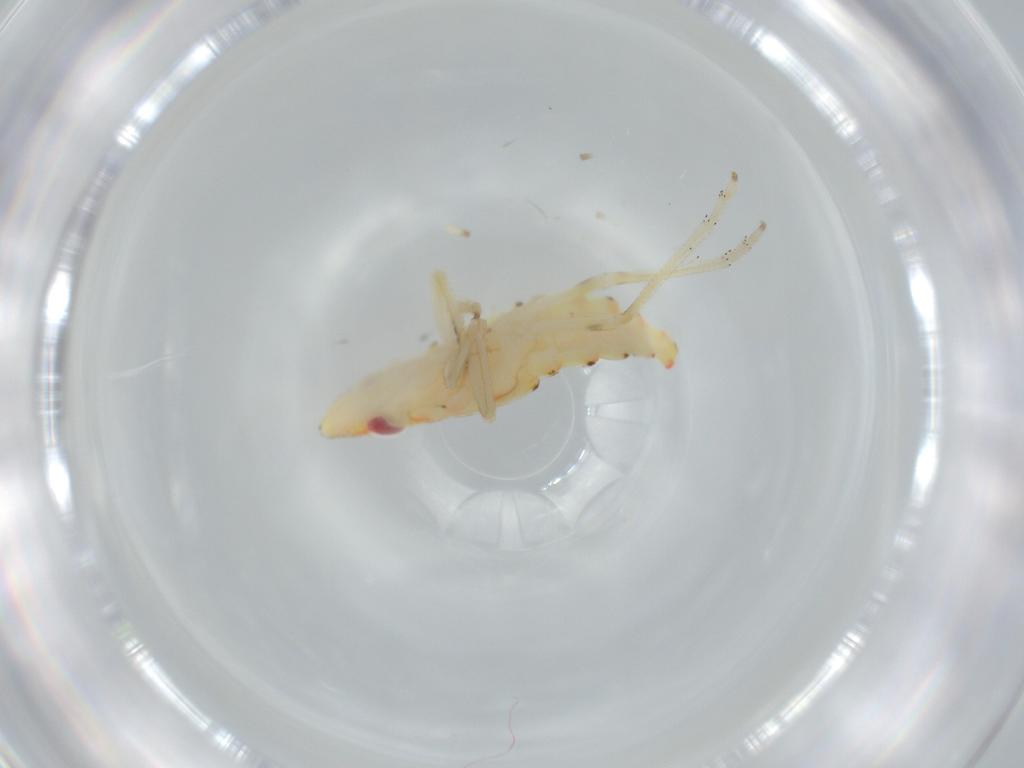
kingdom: Animalia
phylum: Arthropoda
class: Insecta
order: Hemiptera
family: Tropiduchidae
